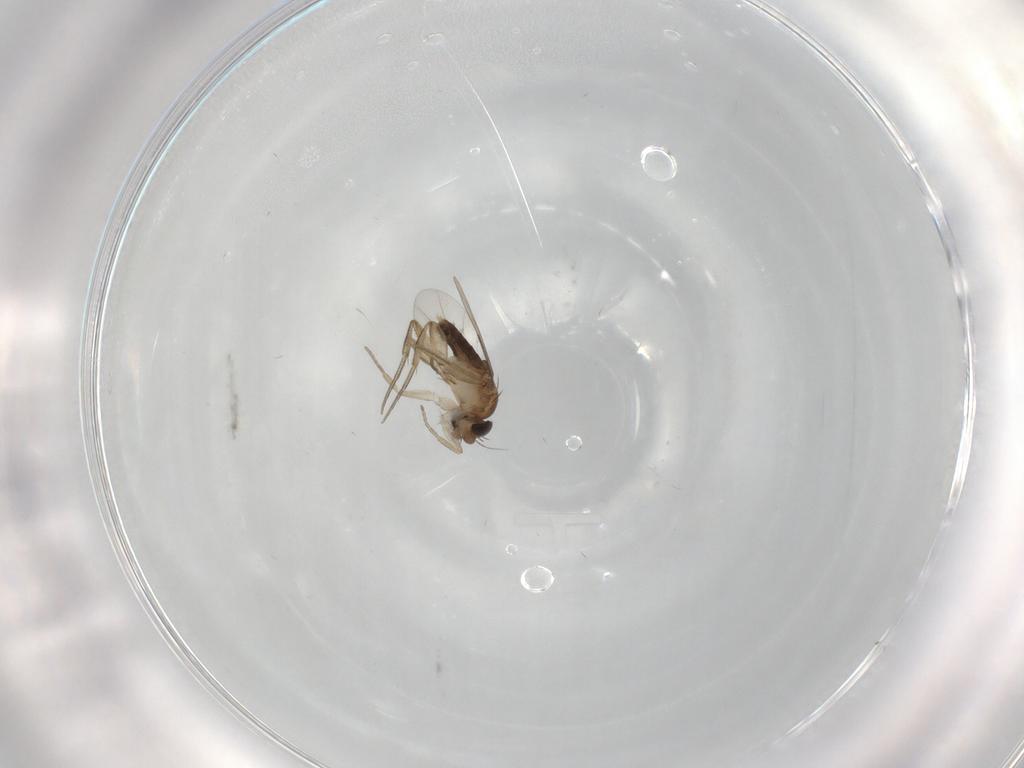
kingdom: Animalia
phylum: Arthropoda
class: Insecta
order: Diptera
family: Phoridae
